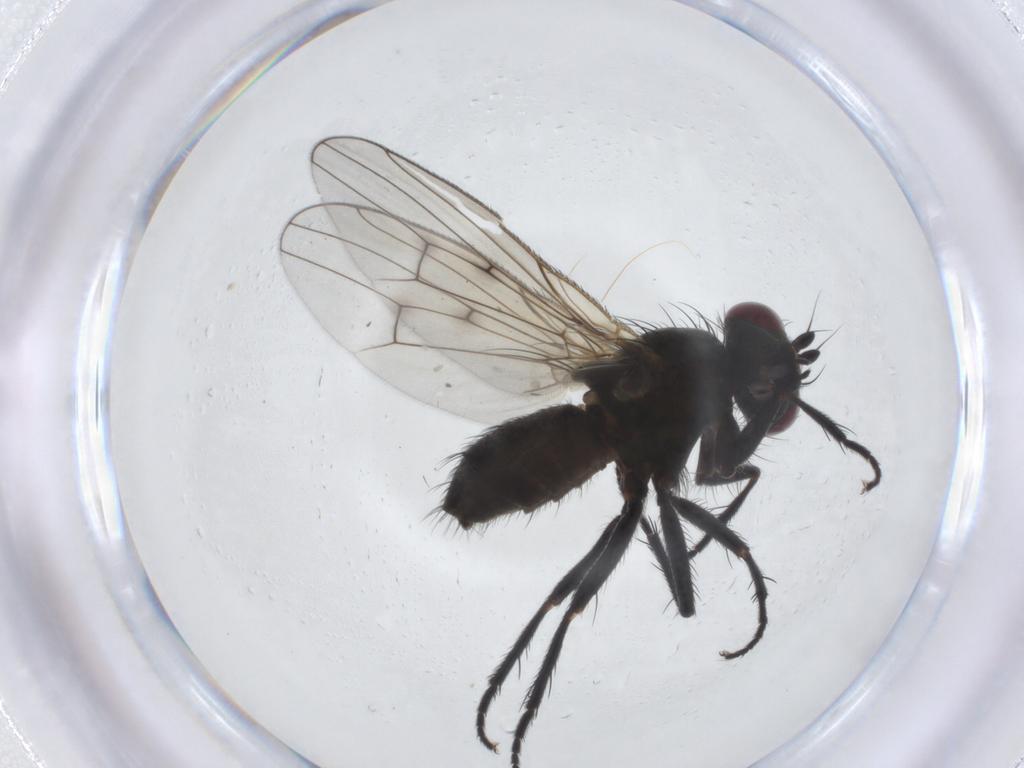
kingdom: Animalia
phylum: Arthropoda
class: Insecta
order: Diptera
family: Muscidae
